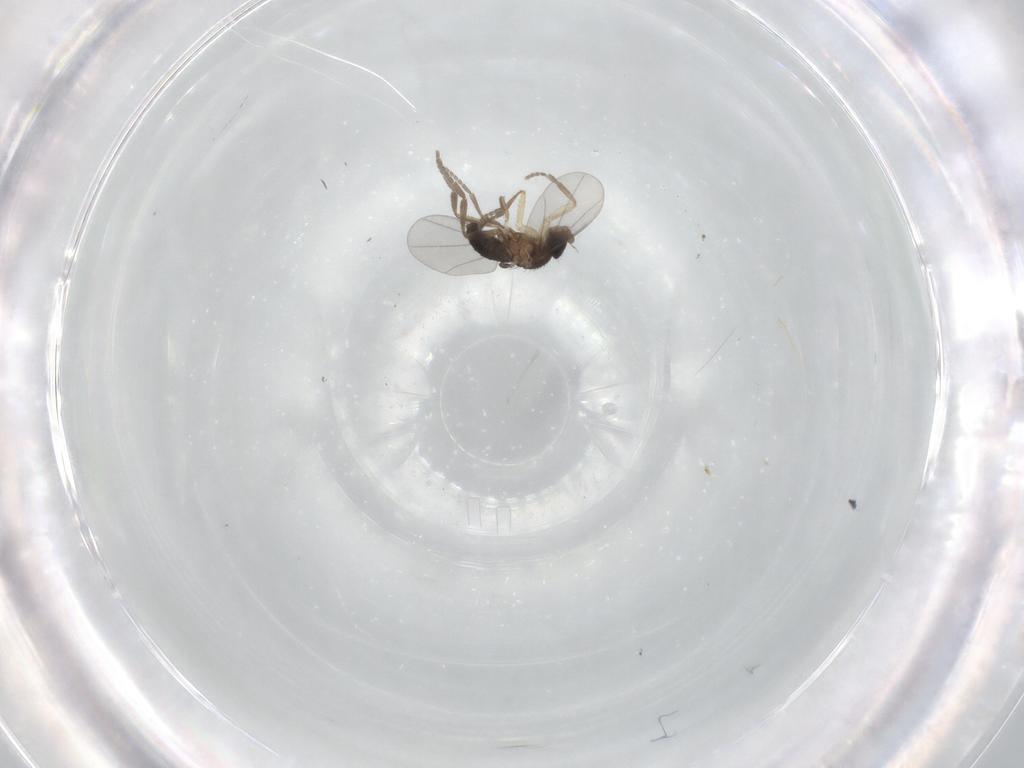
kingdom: Animalia
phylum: Arthropoda
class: Insecta
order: Diptera
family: Phoridae
